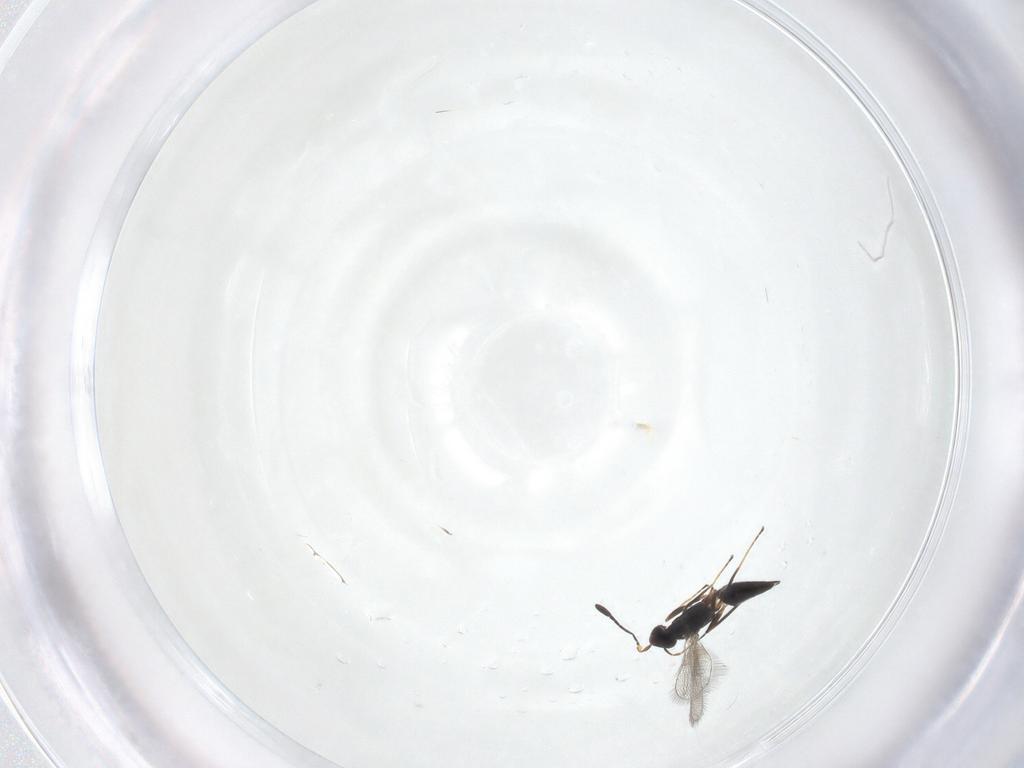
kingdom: Animalia
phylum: Arthropoda
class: Insecta
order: Hymenoptera
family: Mymaridae
